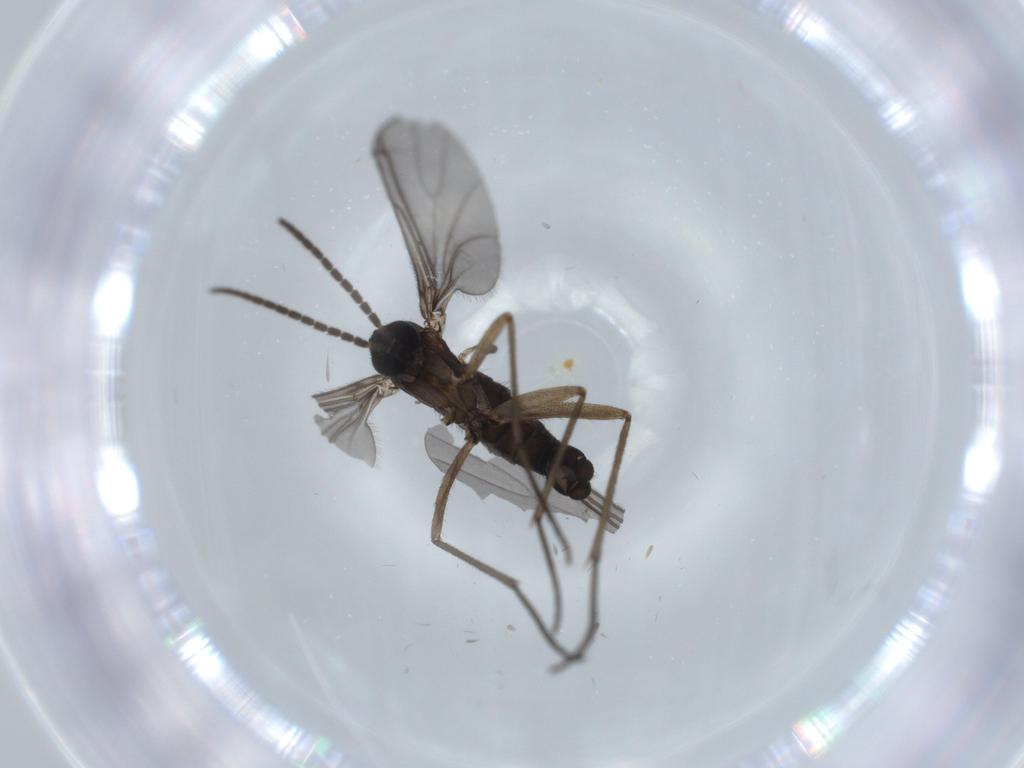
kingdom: Animalia
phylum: Arthropoda
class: Insecta
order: Diptera
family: Sciaridae
